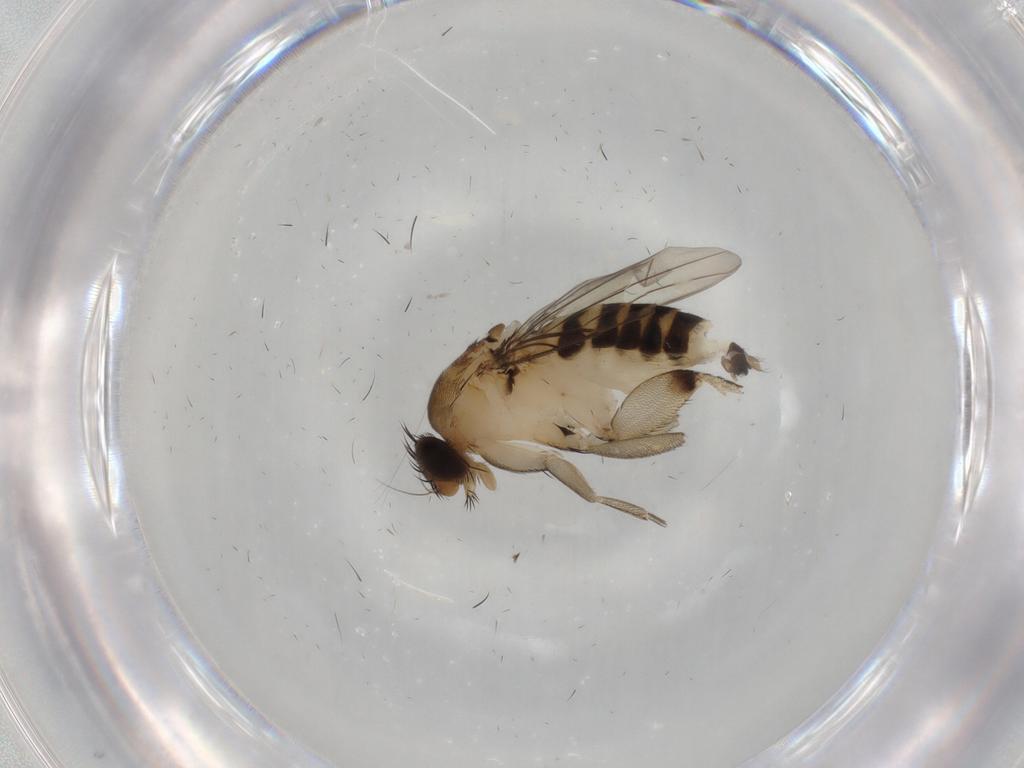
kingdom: Animalia
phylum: Arthropoda
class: Insecta
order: Diptera
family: Phoridae
